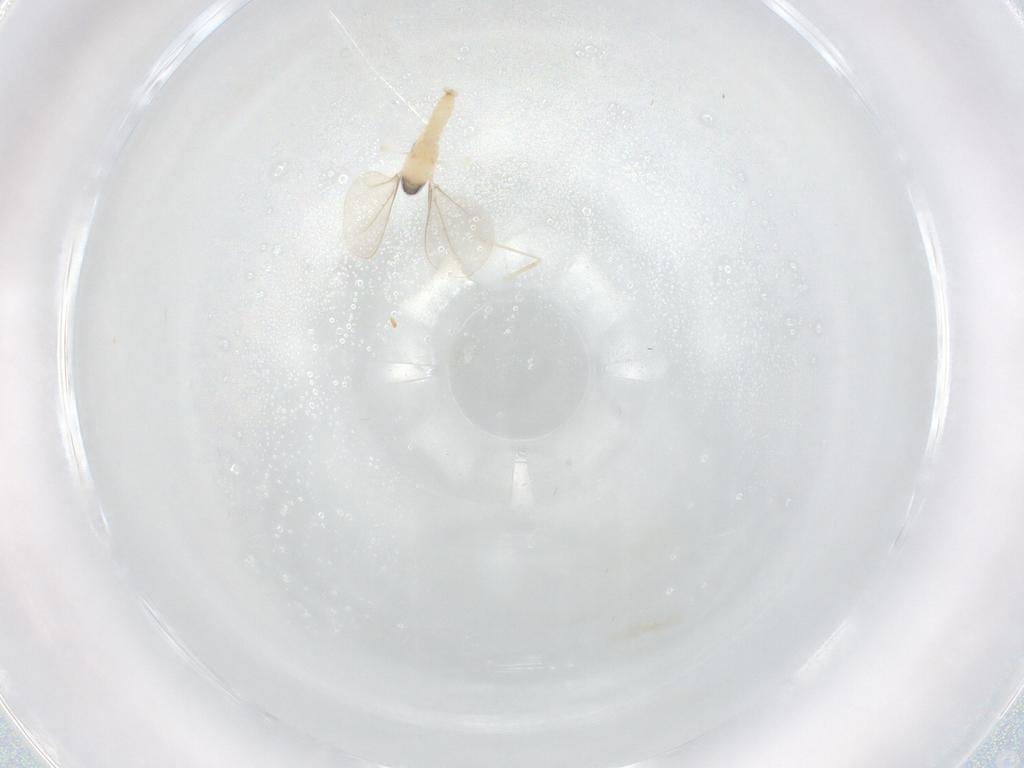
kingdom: Animalia
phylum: Arthropoda
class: Insecta
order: Diptera
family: Cecidomyiidae
